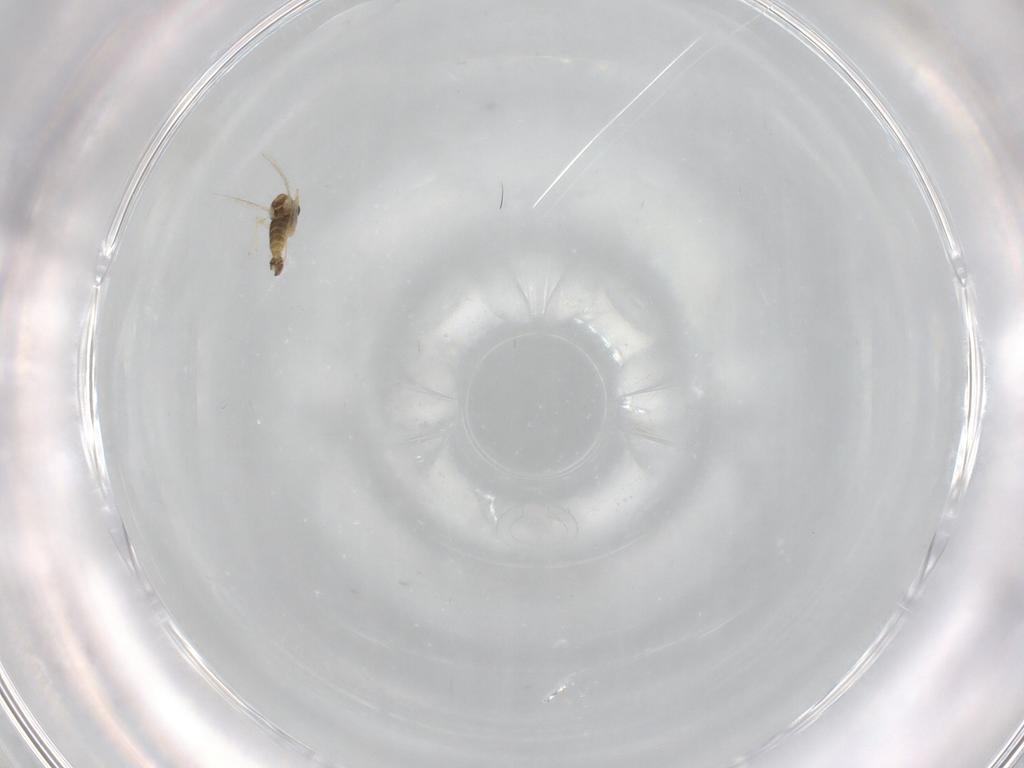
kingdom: Animalia
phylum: Arthropoda
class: Insecta
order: Diptera
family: Chironomidae
